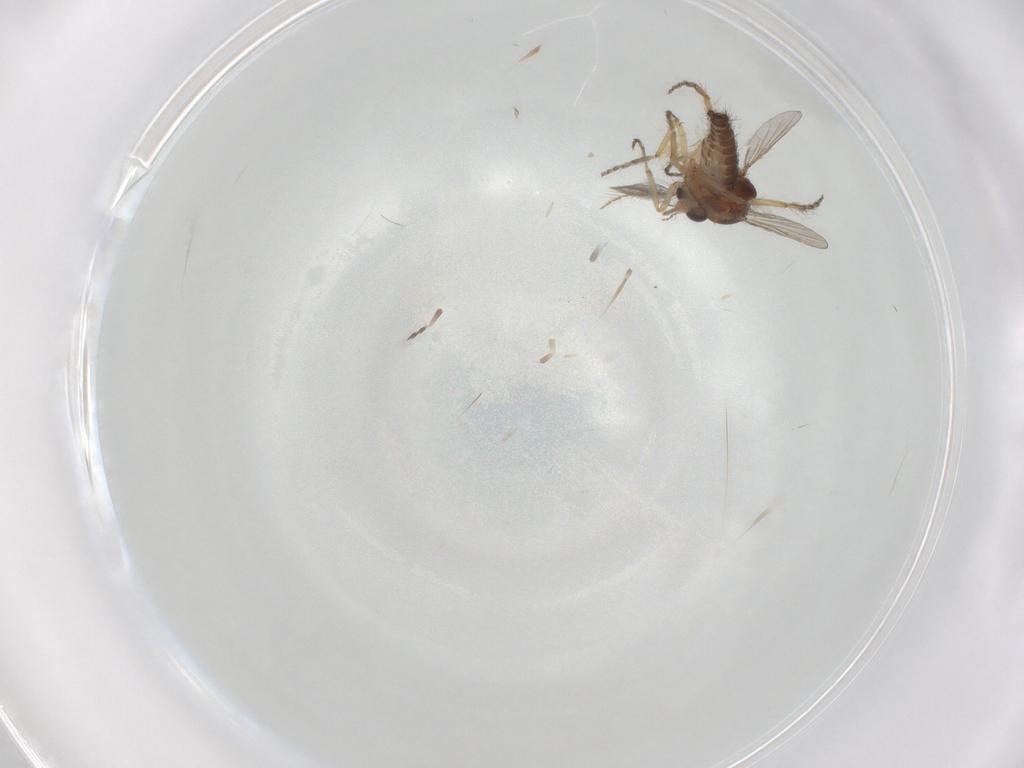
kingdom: Animalia
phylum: Arthropoda
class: Insecta
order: Diptera
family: Ceratopogonidae
